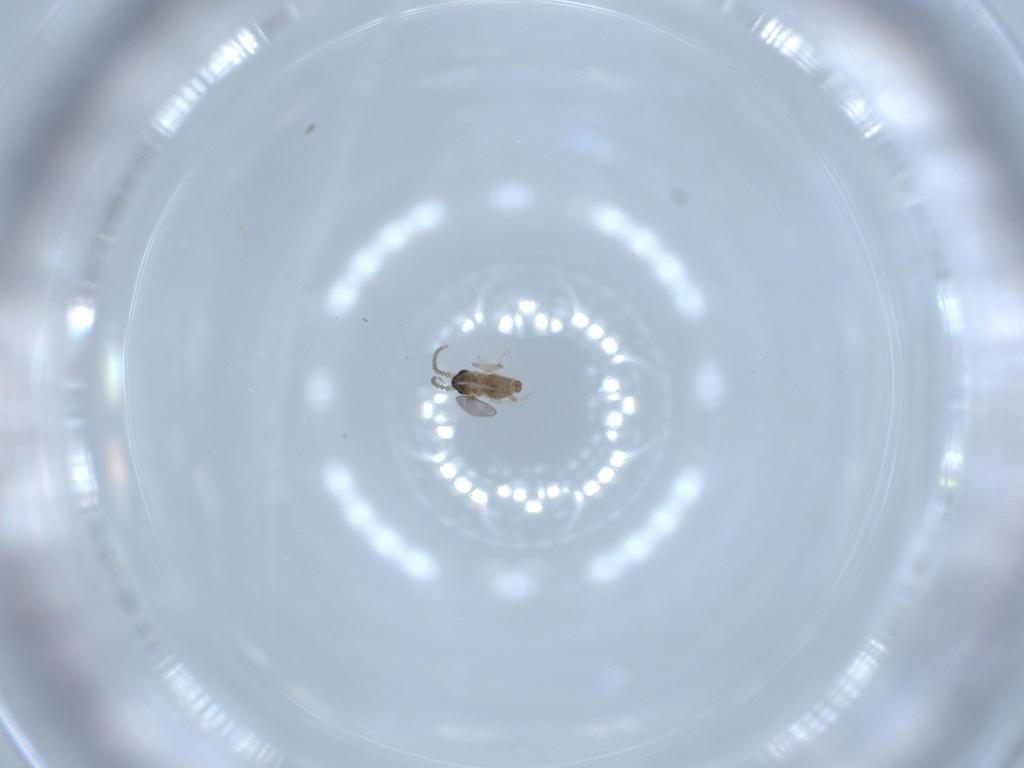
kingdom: Animalia
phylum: Arthropoda
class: Insecta
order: Diptera
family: Cecidomyiidae
